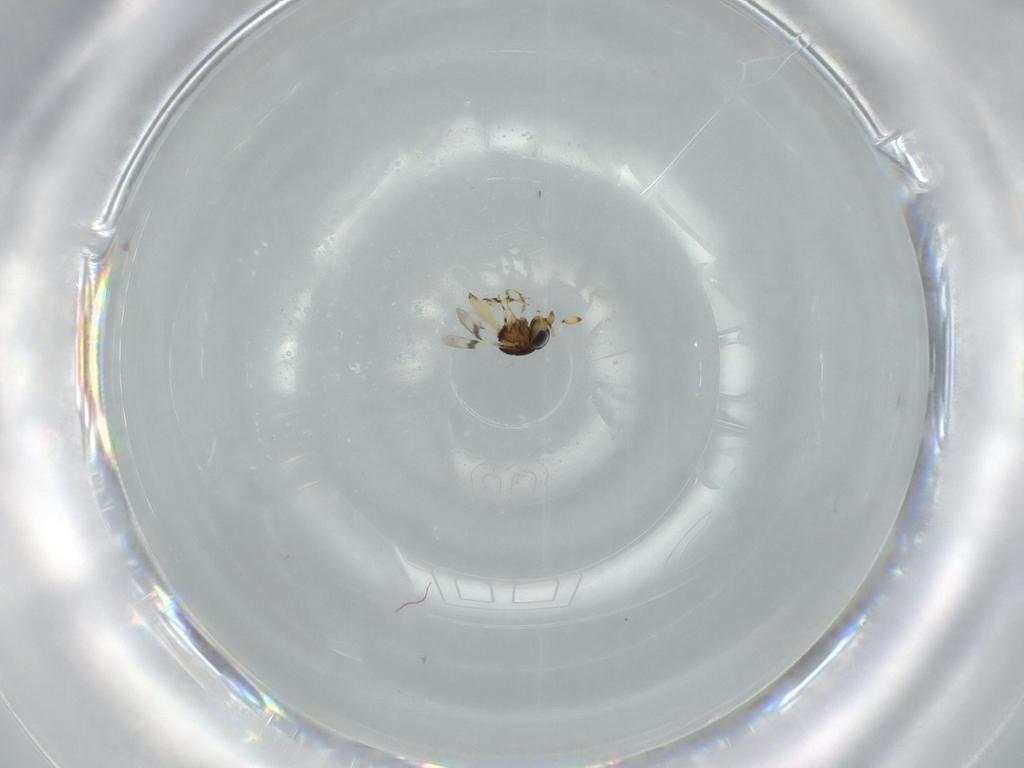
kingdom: Animalia
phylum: Arthropoda
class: Insecta
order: Hymenoptera
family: Scelionidae
